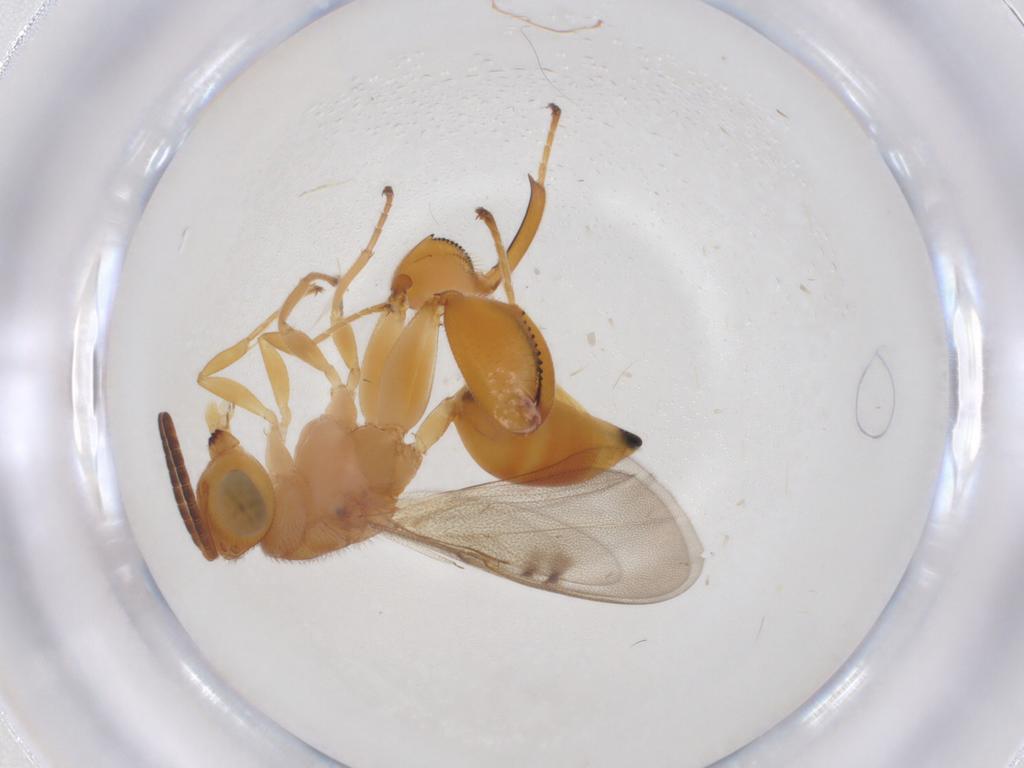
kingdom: Animalia
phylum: Arthropoda
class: Insecta
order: Hymenoptera
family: Chalcididae
